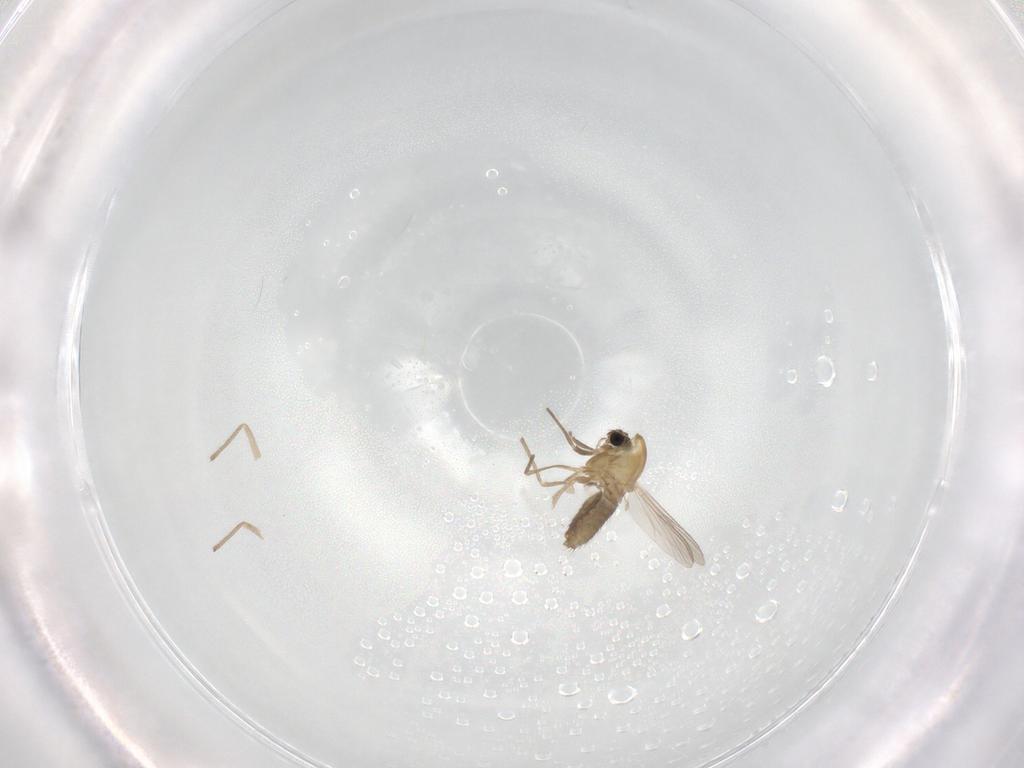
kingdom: Animalia
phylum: Arthropoda
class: Insecta
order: Diptera
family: Chironomidae
